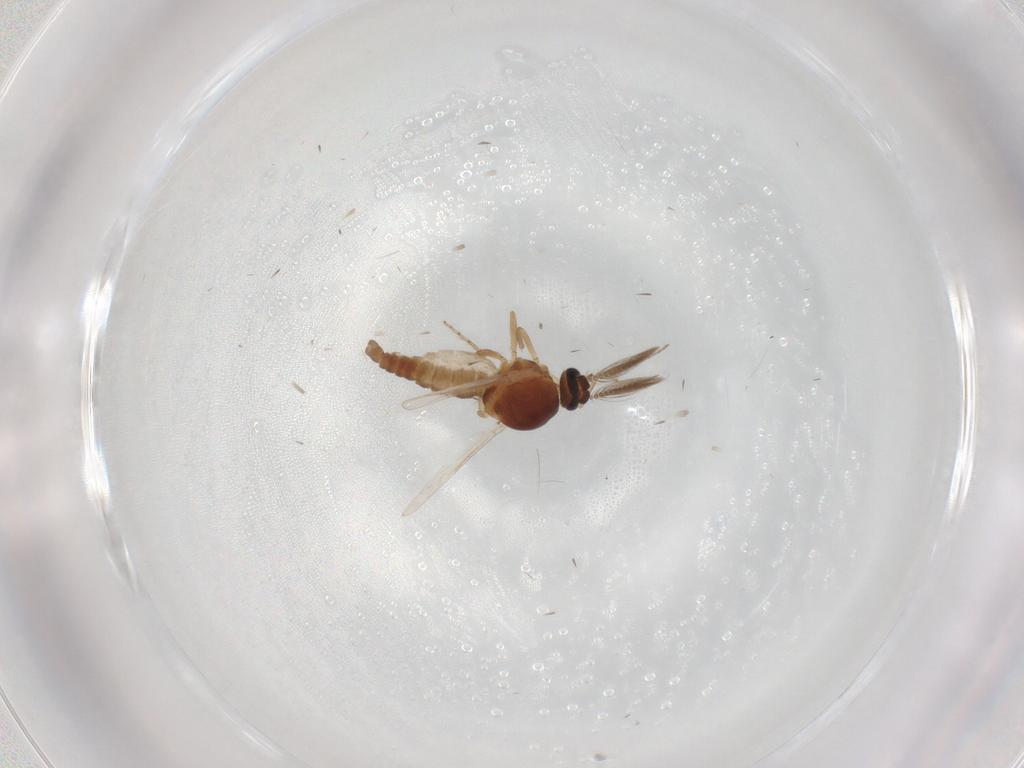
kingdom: Animalia
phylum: Arthropoda
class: Insecta
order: Diptera
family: Ceratopogonidae
